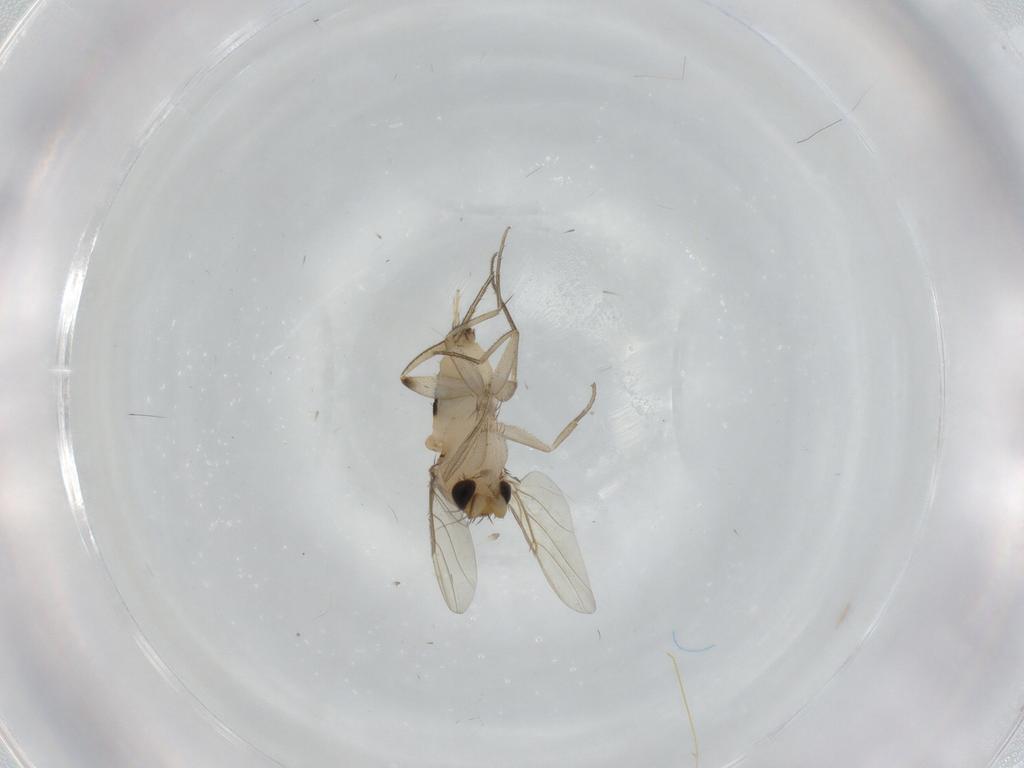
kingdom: Animalia
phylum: Arthropoda
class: Insecta
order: Diptera
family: Phoridae
